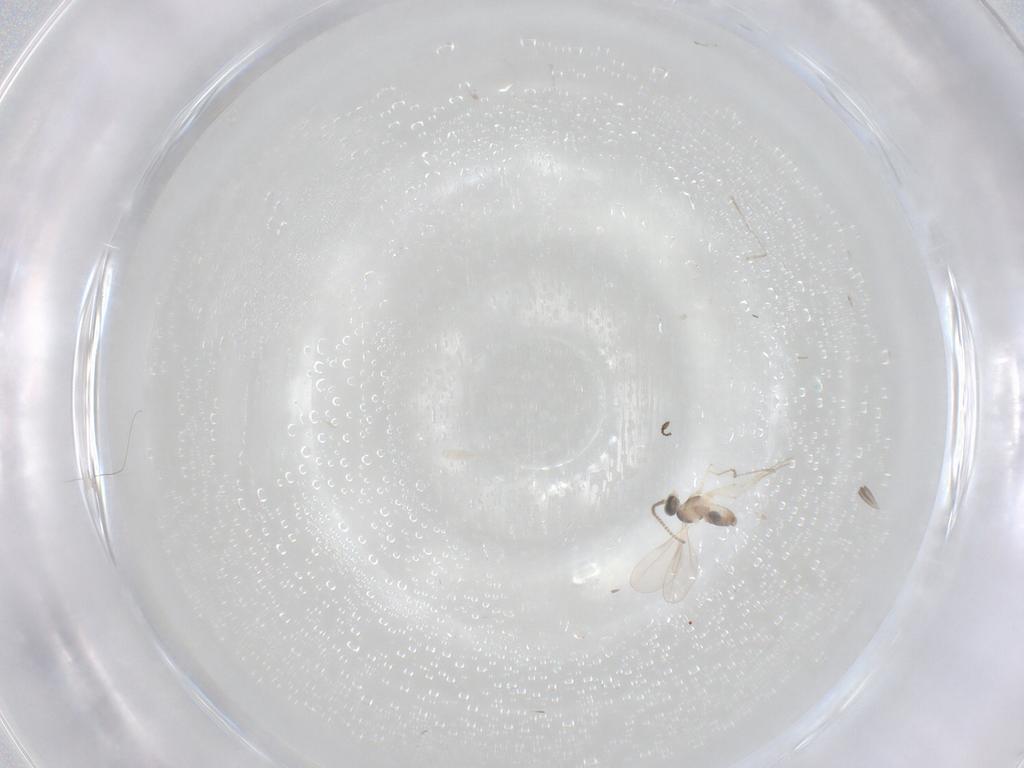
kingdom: Animalia
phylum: Arthropoda
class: Insecta
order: Diptera
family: Cecidomyiidae
